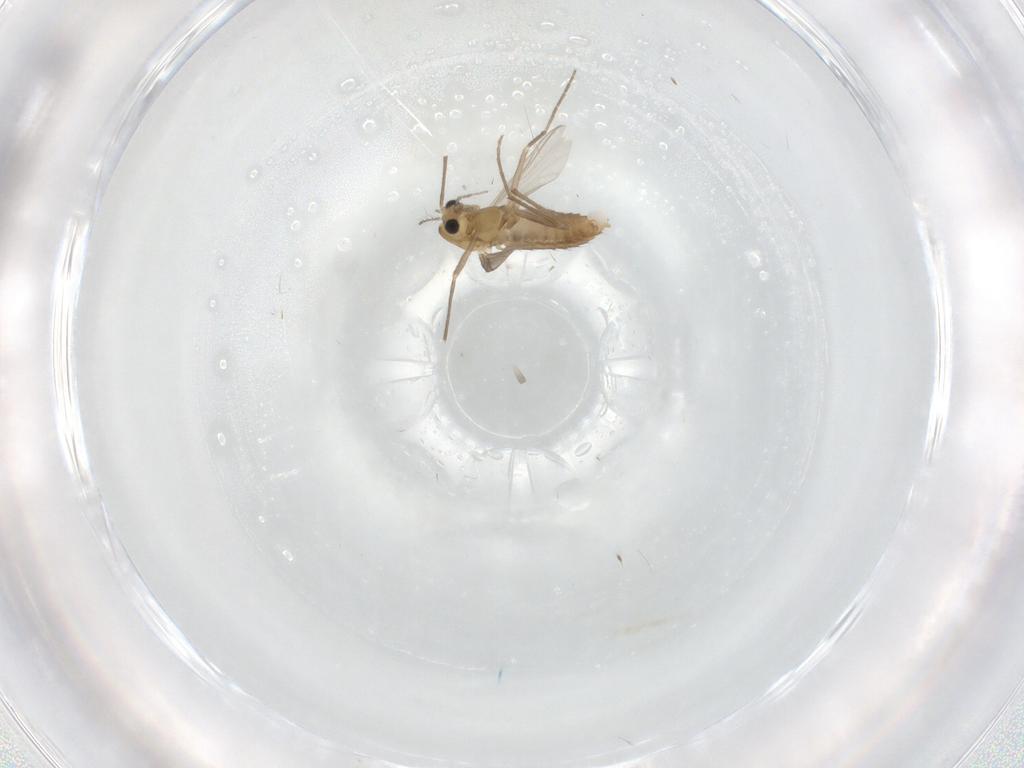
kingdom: Animalia
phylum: Arthropoda
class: Insecta
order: Diptera
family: Chironomidae
